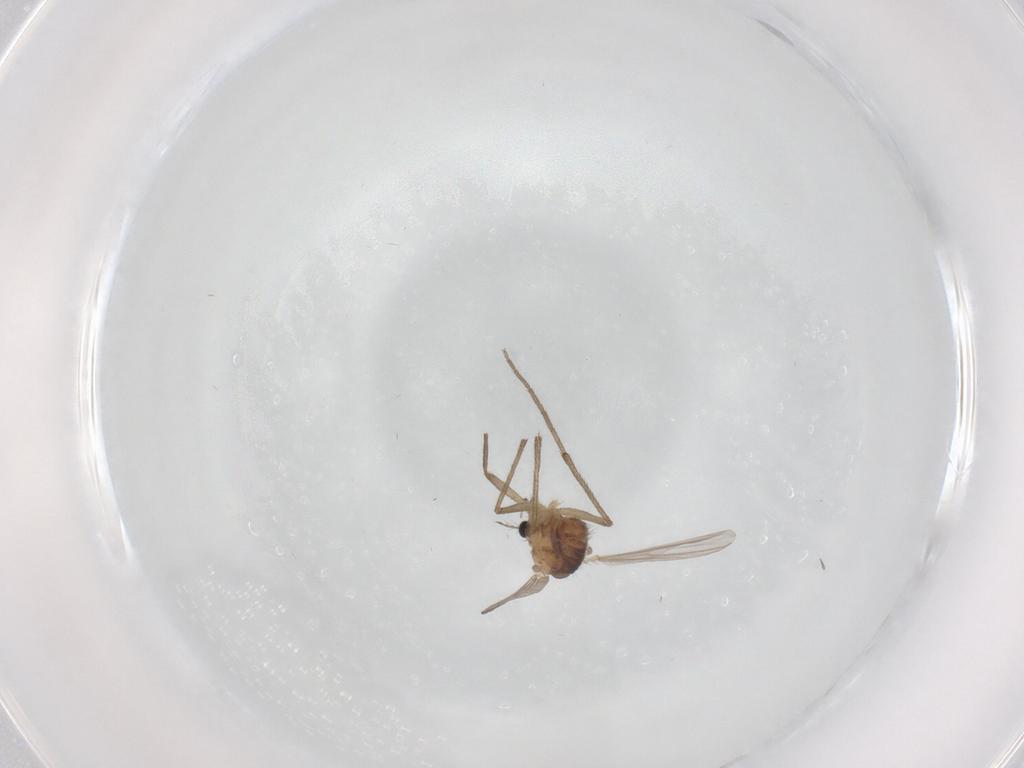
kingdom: Animalia
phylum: Arthropoda
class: Insecta
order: Diptera
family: Chironomidae
